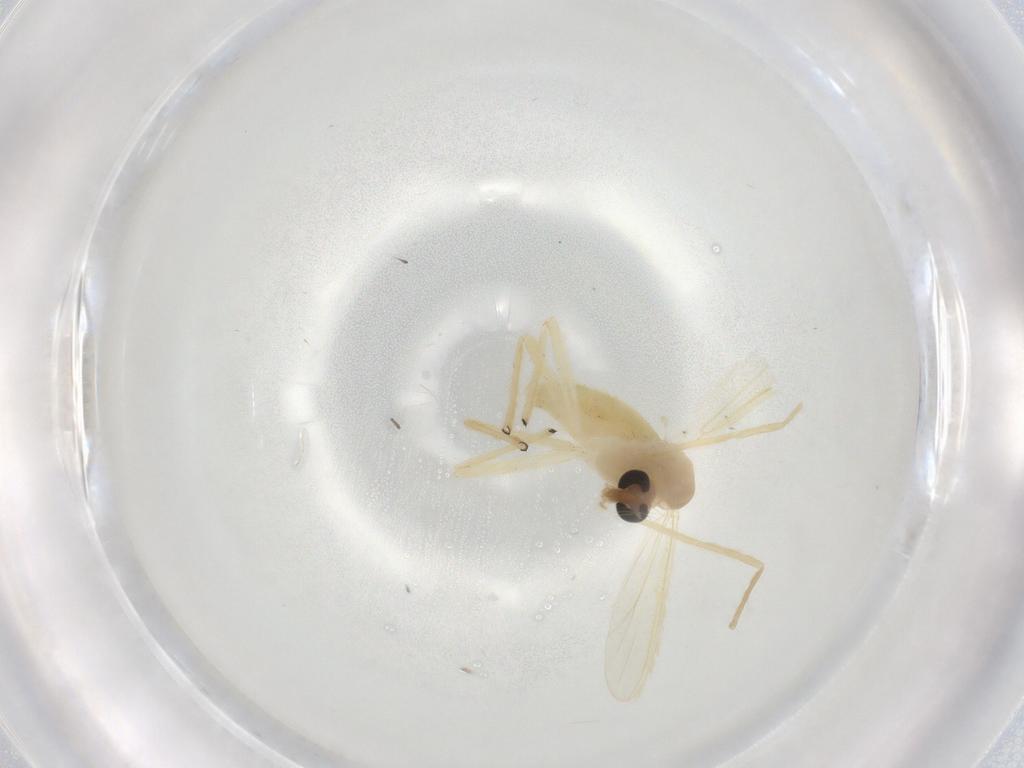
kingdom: Animalia
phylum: Arthropoda
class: Insecta
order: Diptera
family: Chironomidae
